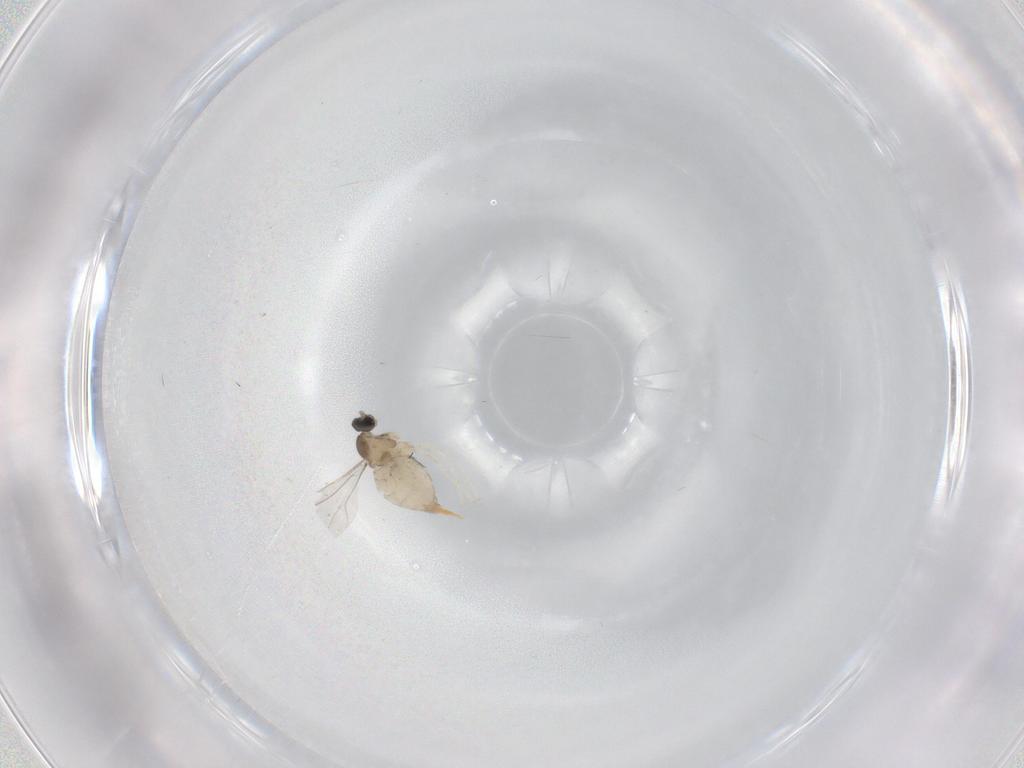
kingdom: Animalia
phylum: Arthropoda
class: Insecta
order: Diptera
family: Cecidomyiidae
